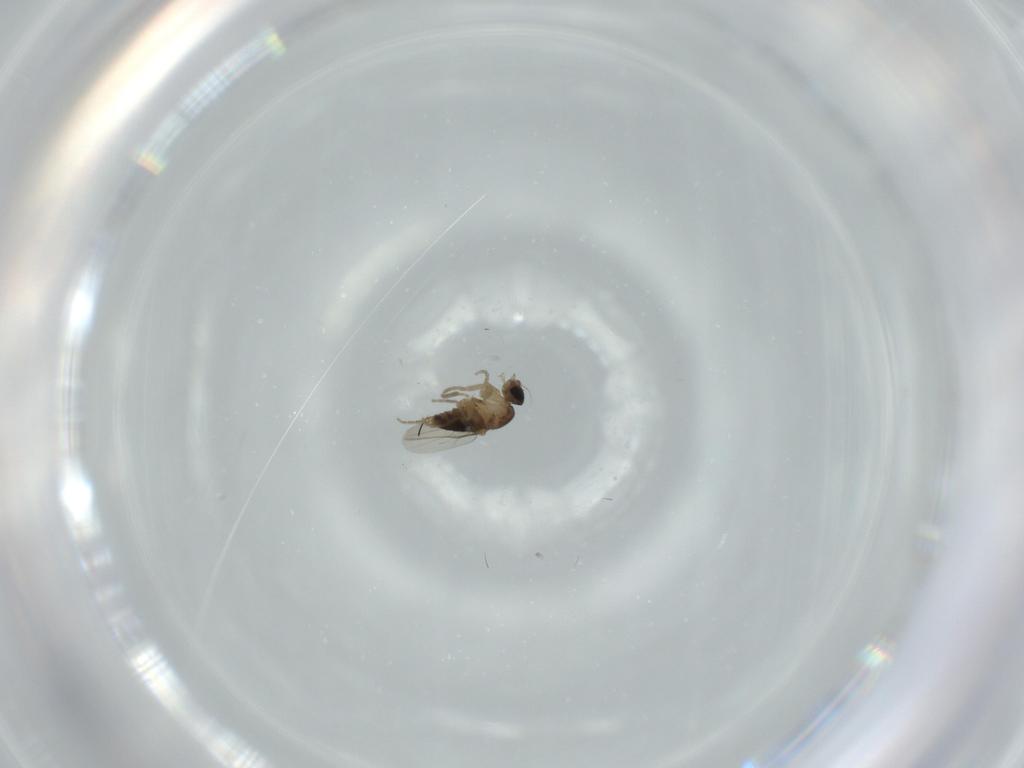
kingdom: Animalia
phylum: Arthropoda
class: Insecta
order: Diptera
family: Phoridae
